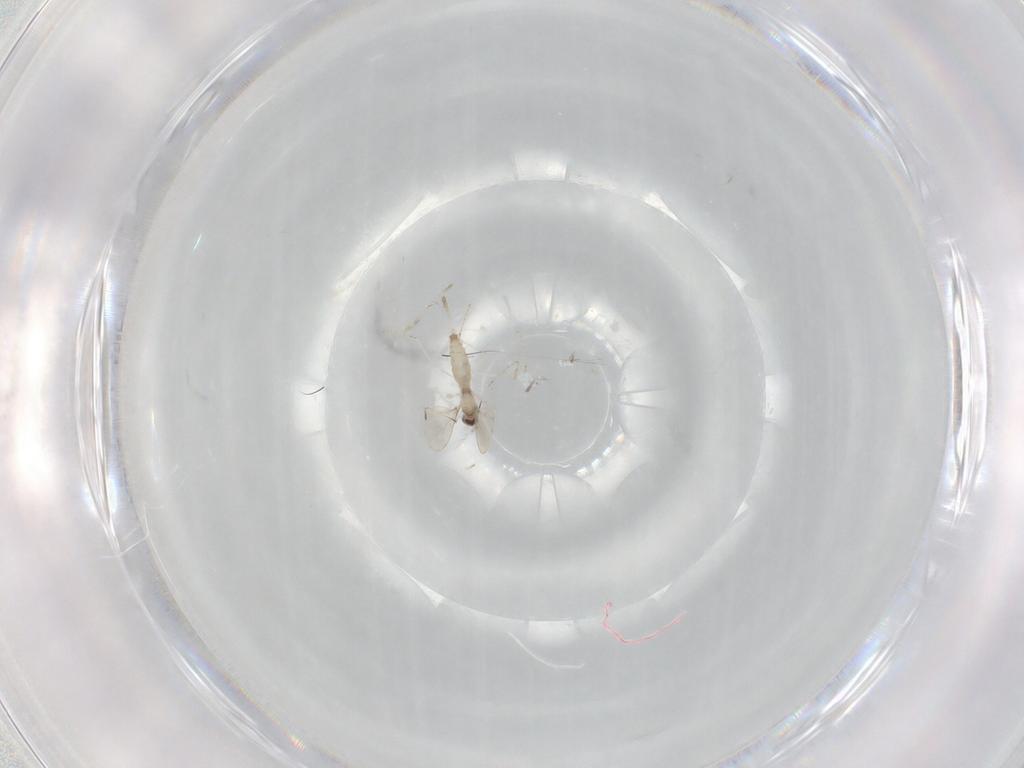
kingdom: Animalia
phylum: Arthropoda
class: Insecta
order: Diptera
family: Cecidomyiidae
